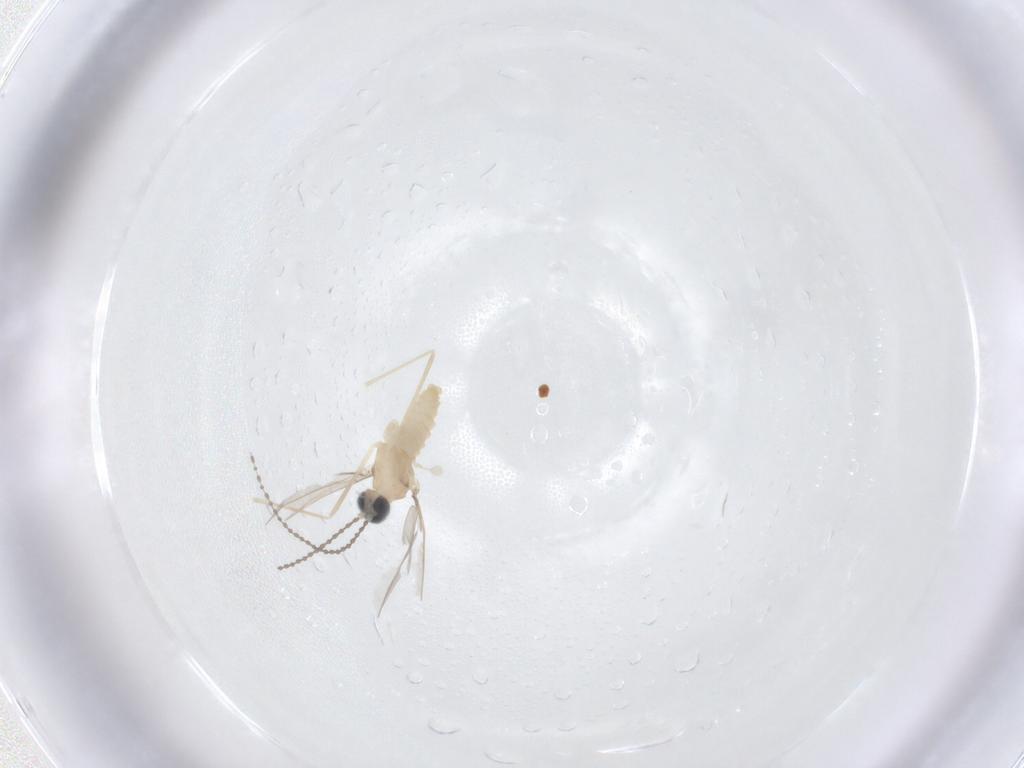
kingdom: Animalia
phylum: Arthropoda
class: Insecta
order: Diptera
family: Cecidomyiidae
